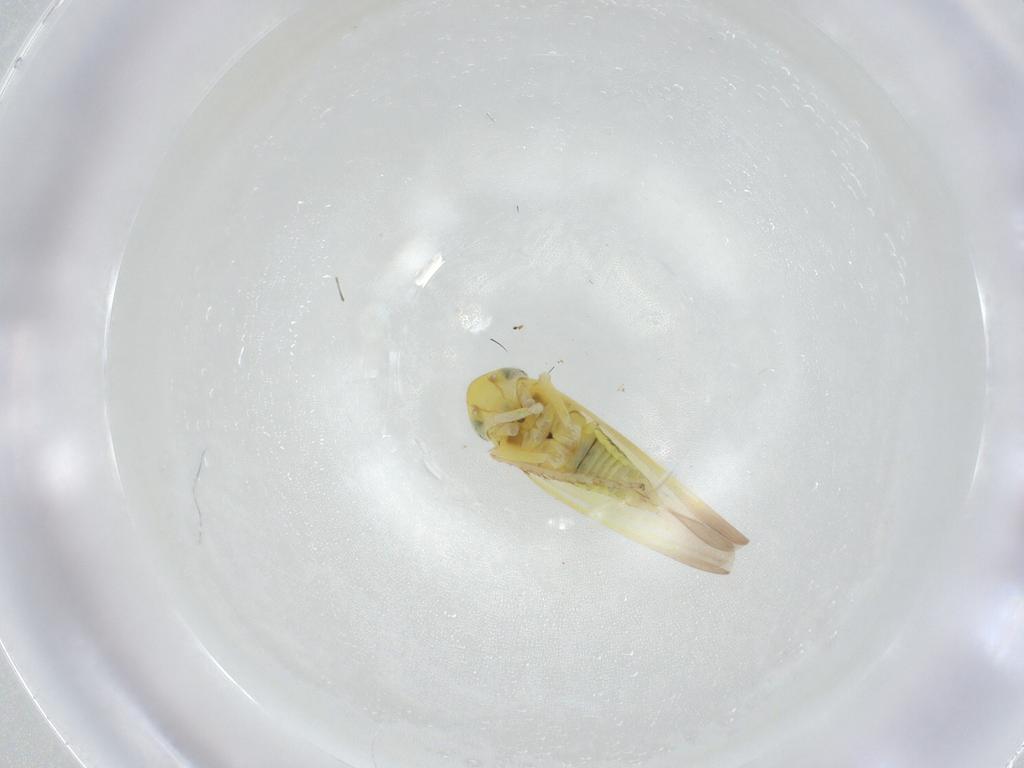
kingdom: Animalia
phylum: Arthropoda
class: Insecta
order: Hemiptera
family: Cicadellidae
